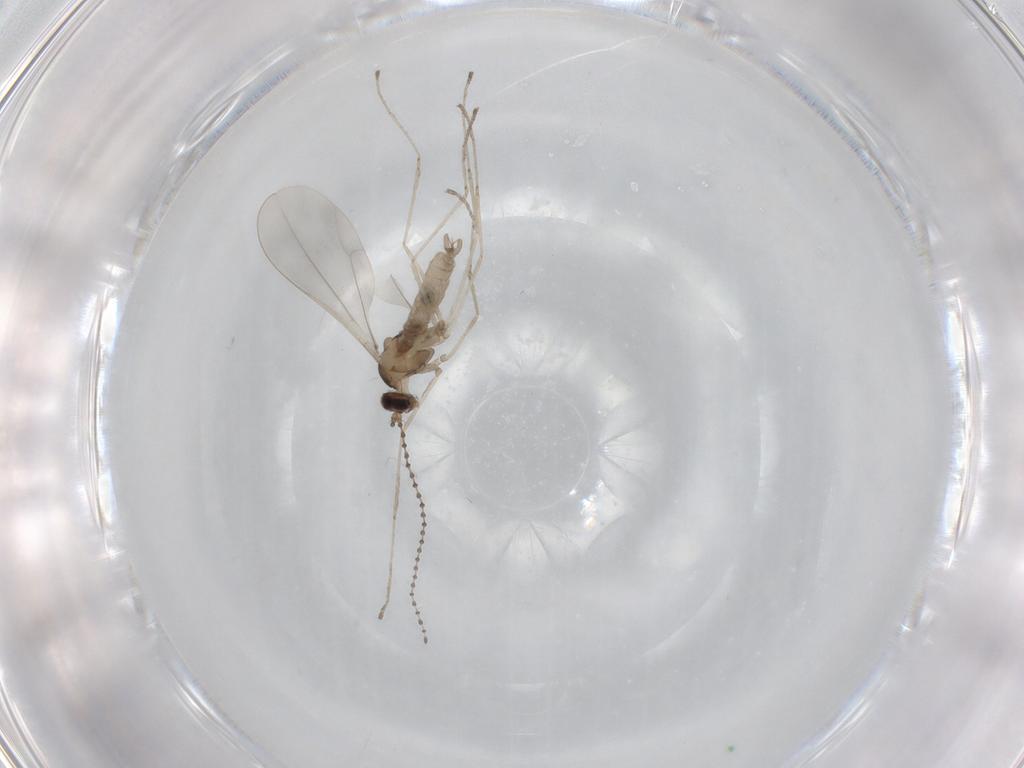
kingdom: Animalia
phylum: Arthropoda
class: Insecta
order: Diptera
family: Cecidomyiidae
